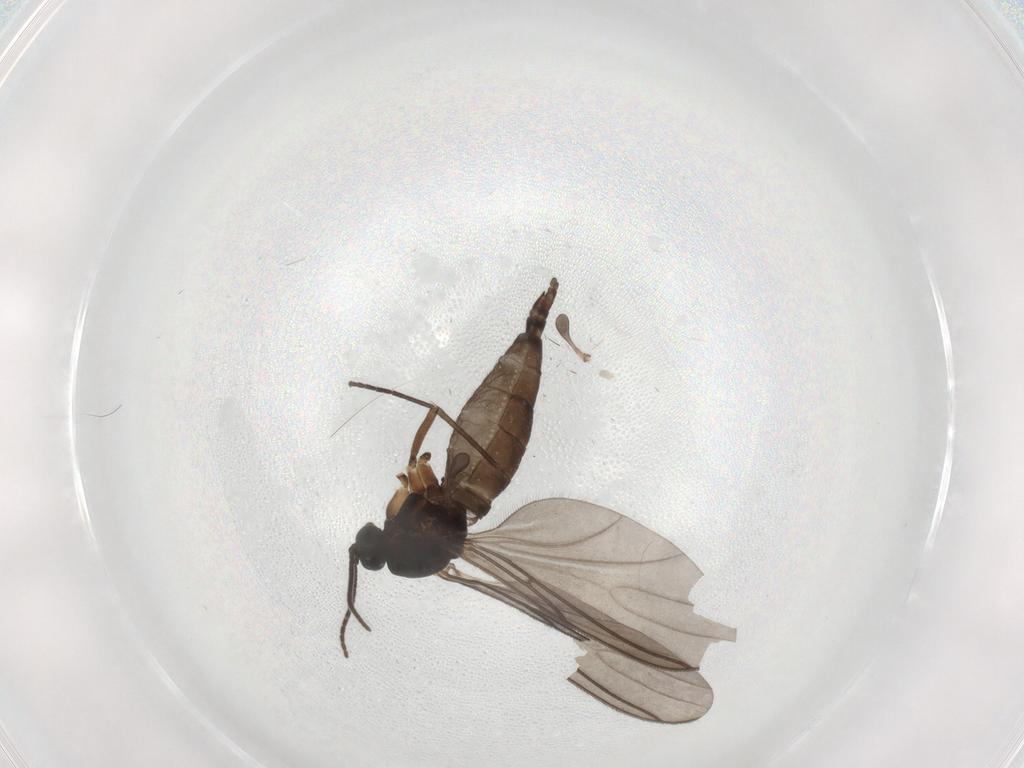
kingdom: Animalia
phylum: Arthropoda
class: Insecta
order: Diptera
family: Sciaridae
